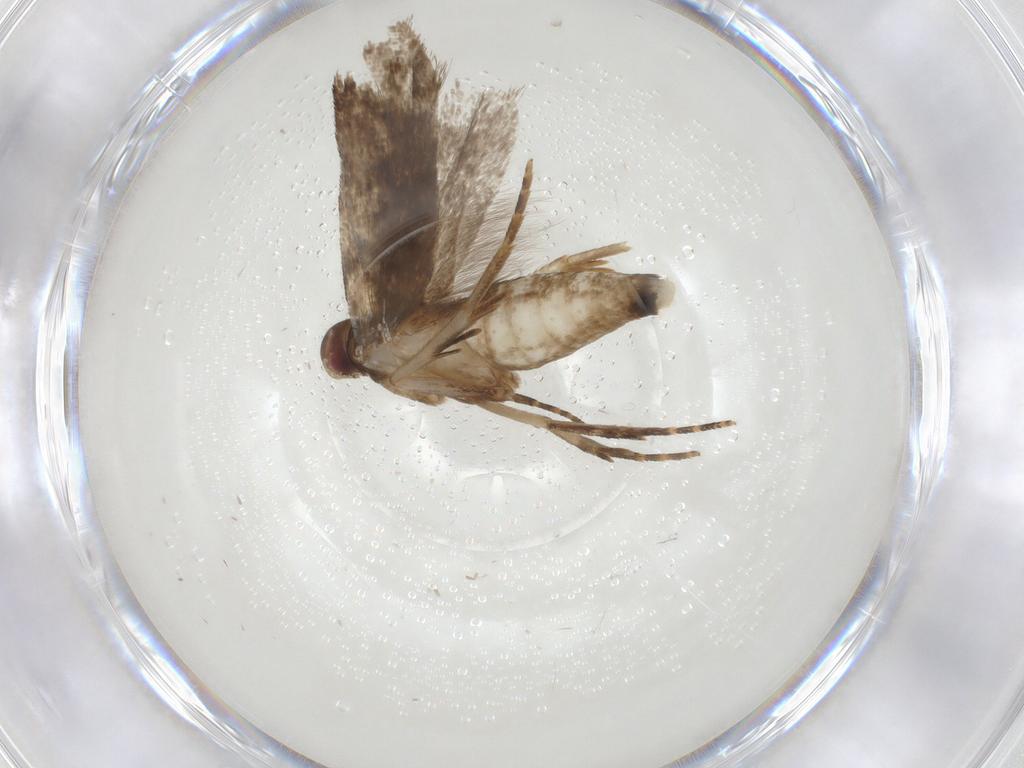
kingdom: Animalia
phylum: Arthropoda
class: Insecta
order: Lepidoptera
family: Gelechiidae
